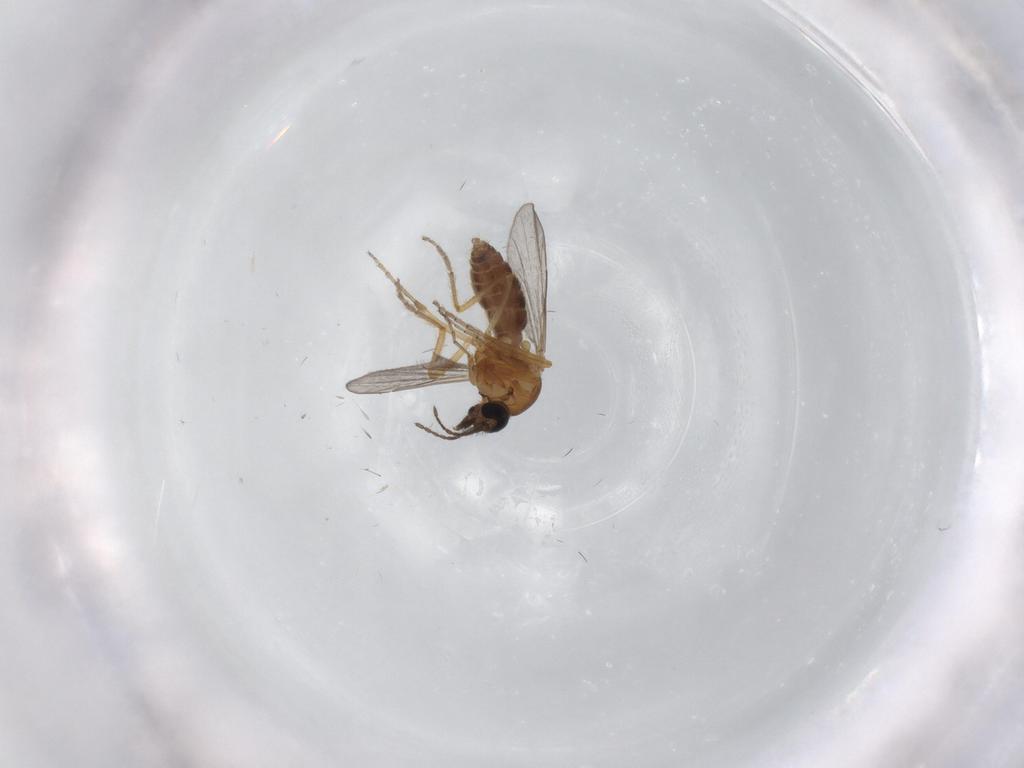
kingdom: Animalia
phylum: Arthropoda
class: Insecta
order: Diptera
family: Ceratopogonidae
